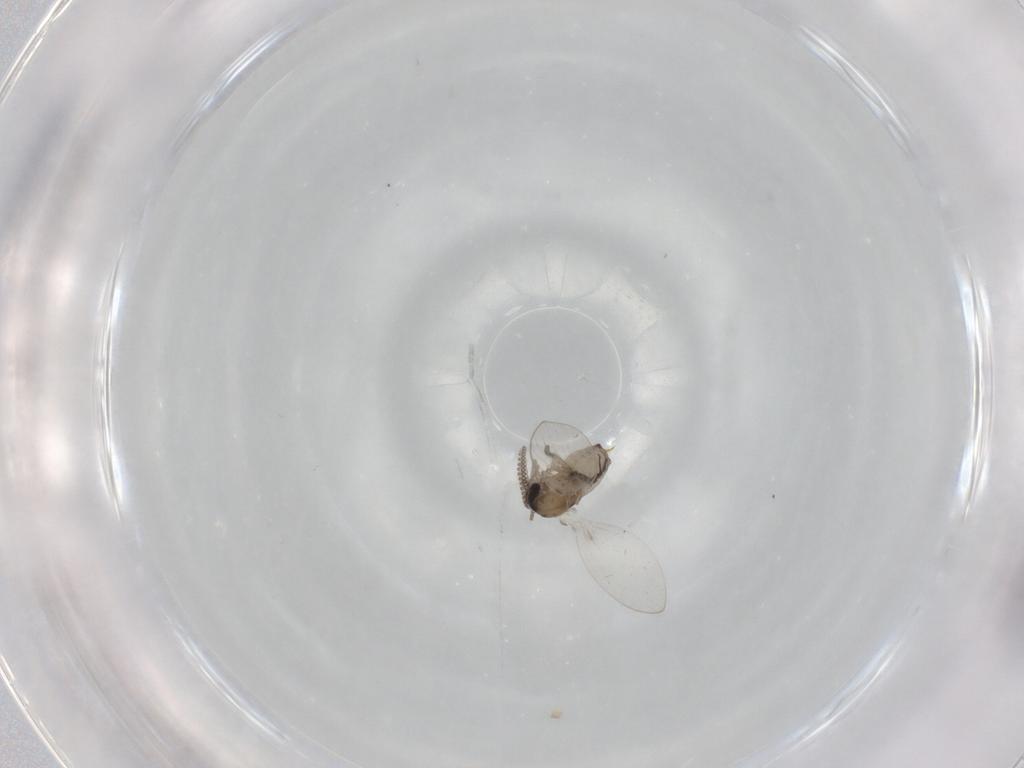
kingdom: Animalia
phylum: Arthropoda
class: Insecta
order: Diptera
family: Psychodidae
